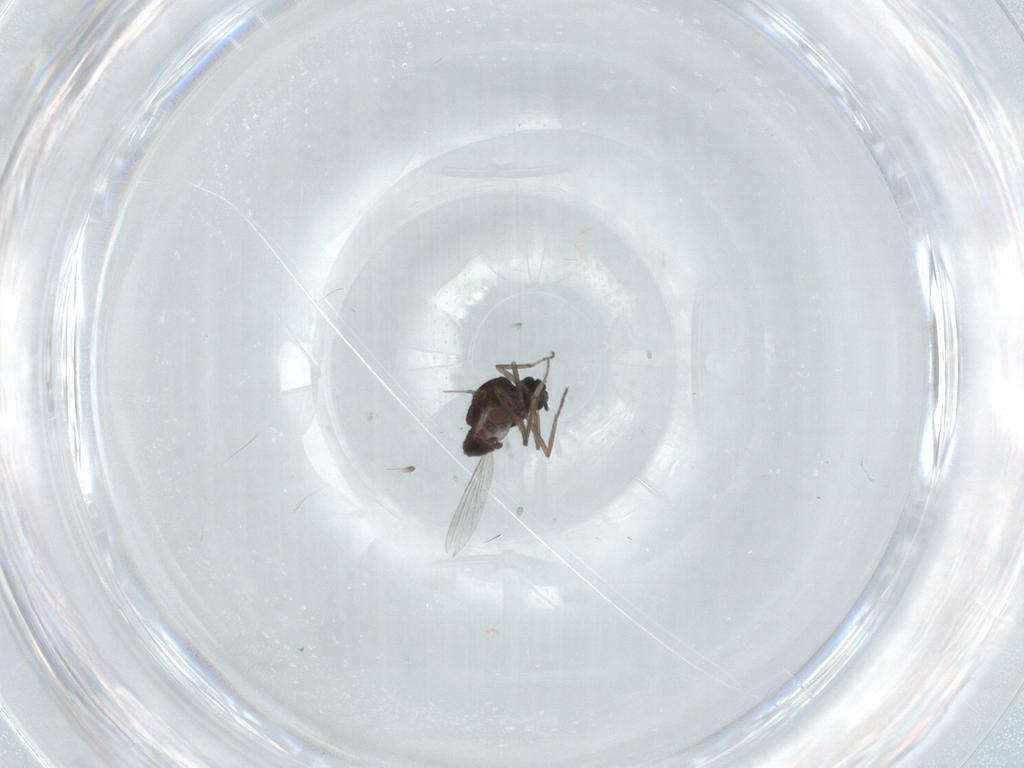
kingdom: Animalia
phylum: Arthropoda
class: Insecta
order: Diptera
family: Ceratopogonidae
